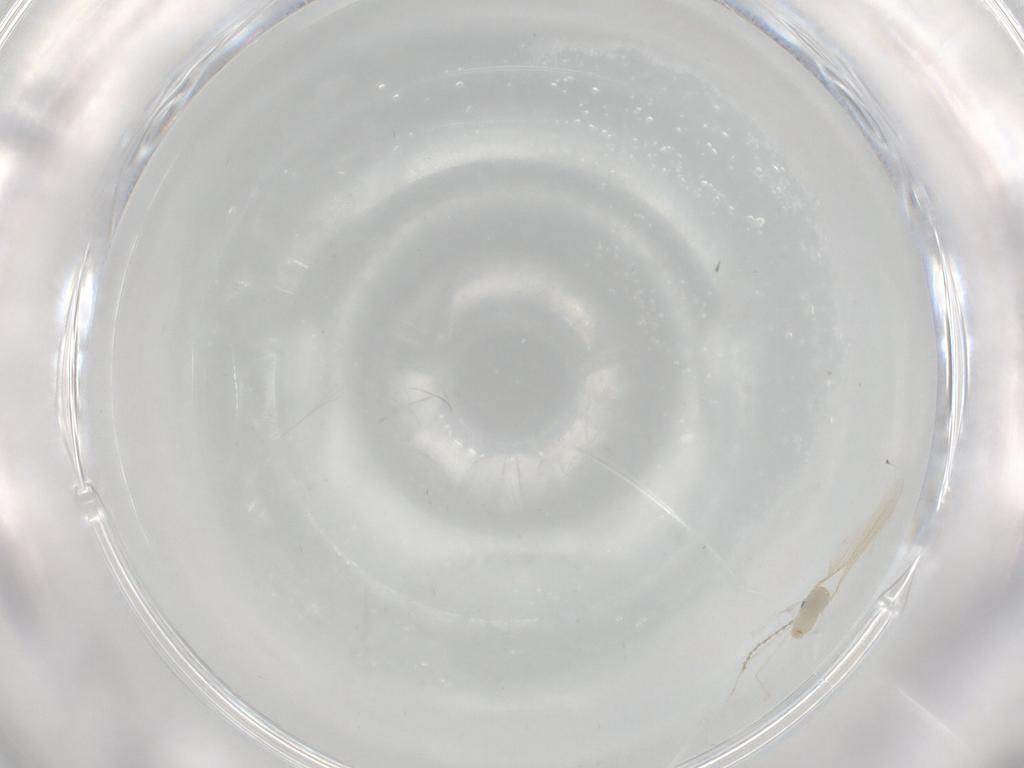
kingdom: Animalia
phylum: Arthropoda
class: Insecta
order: Diptera
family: Cecidomyiidae
